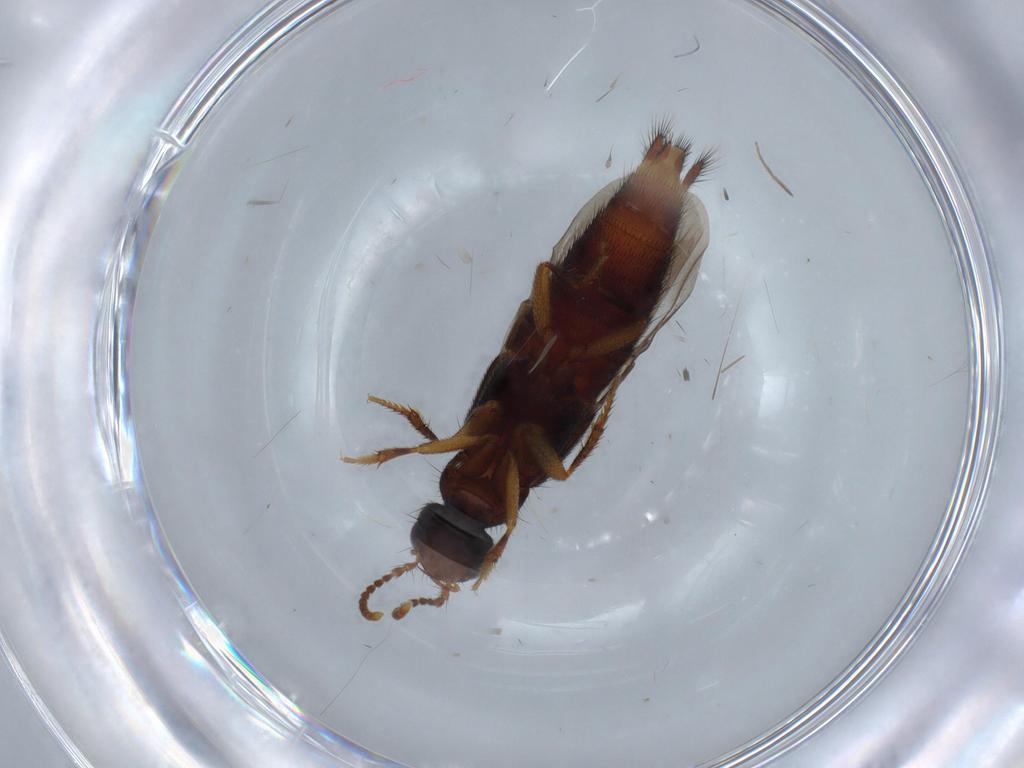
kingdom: Animalia
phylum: Arthropoda
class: Insecta
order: Coleoptera
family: Staphylinidae
